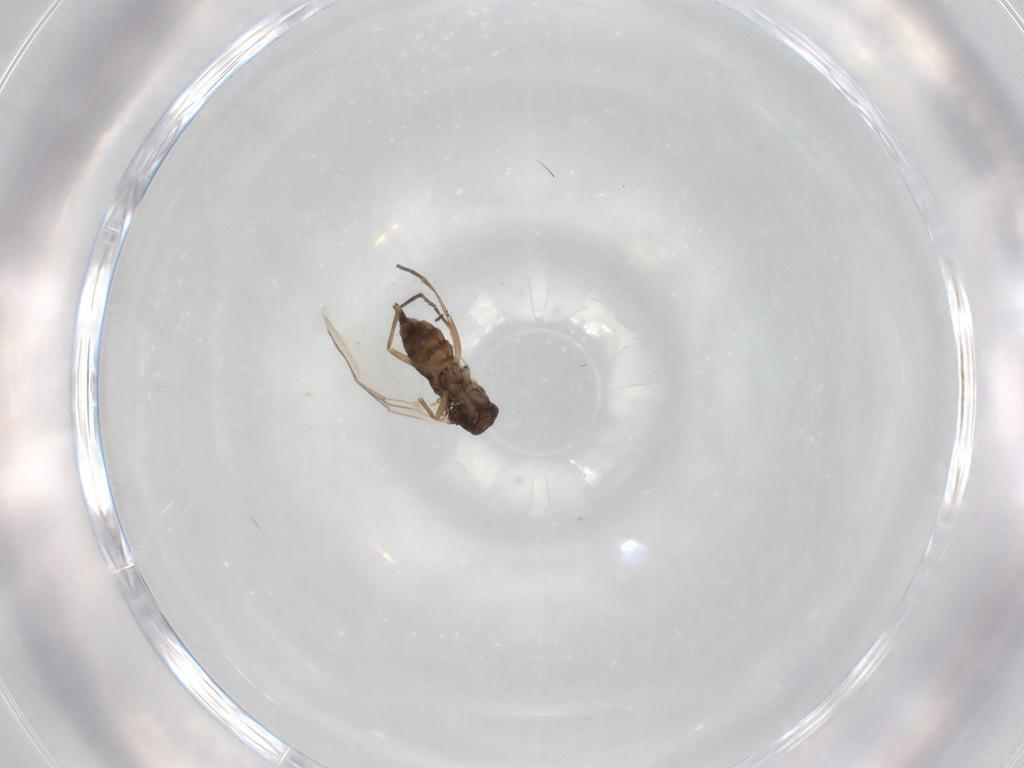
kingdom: Animalia
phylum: Arthropoda
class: Insecta
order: Diptera
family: Sciaridae
